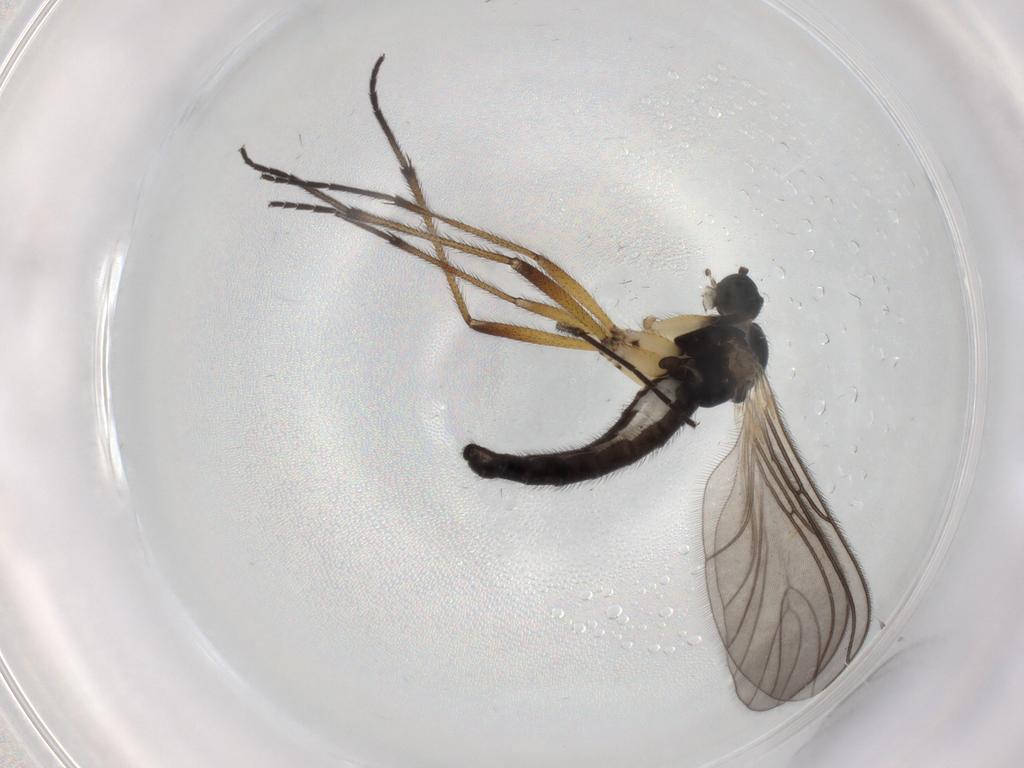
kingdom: Animalia
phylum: Arthropoda
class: Insecta
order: Diptera
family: Sciaridae
